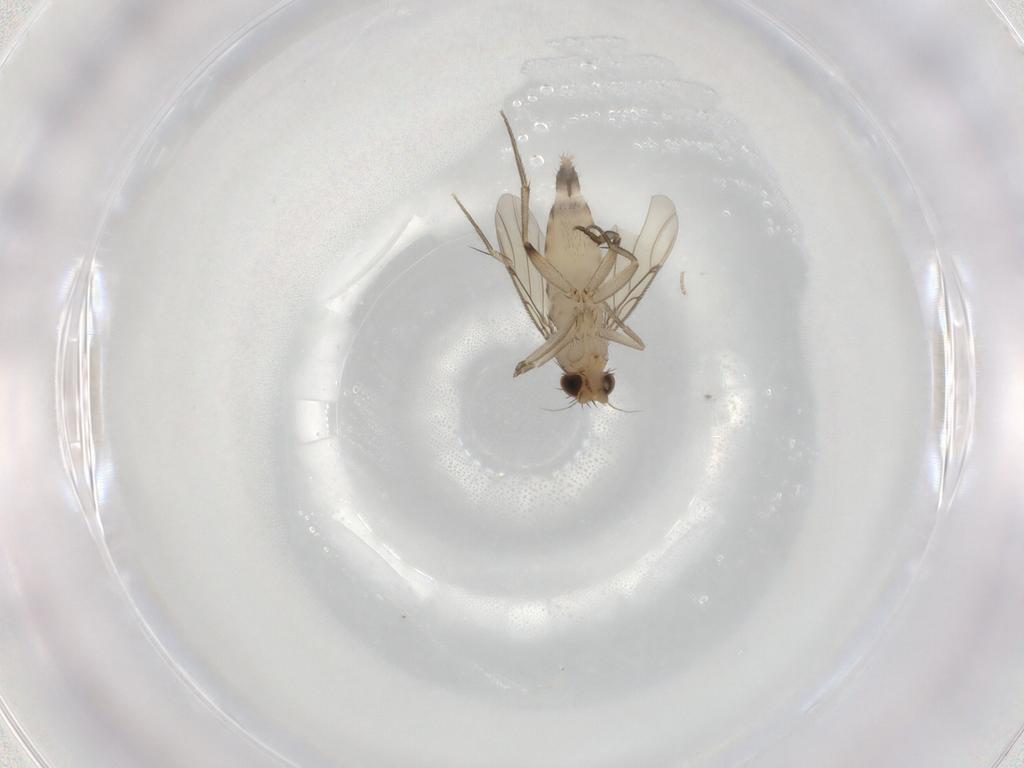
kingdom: Animalia
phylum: Arthropoda
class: Insecta
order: Diptera
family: Phoridae
